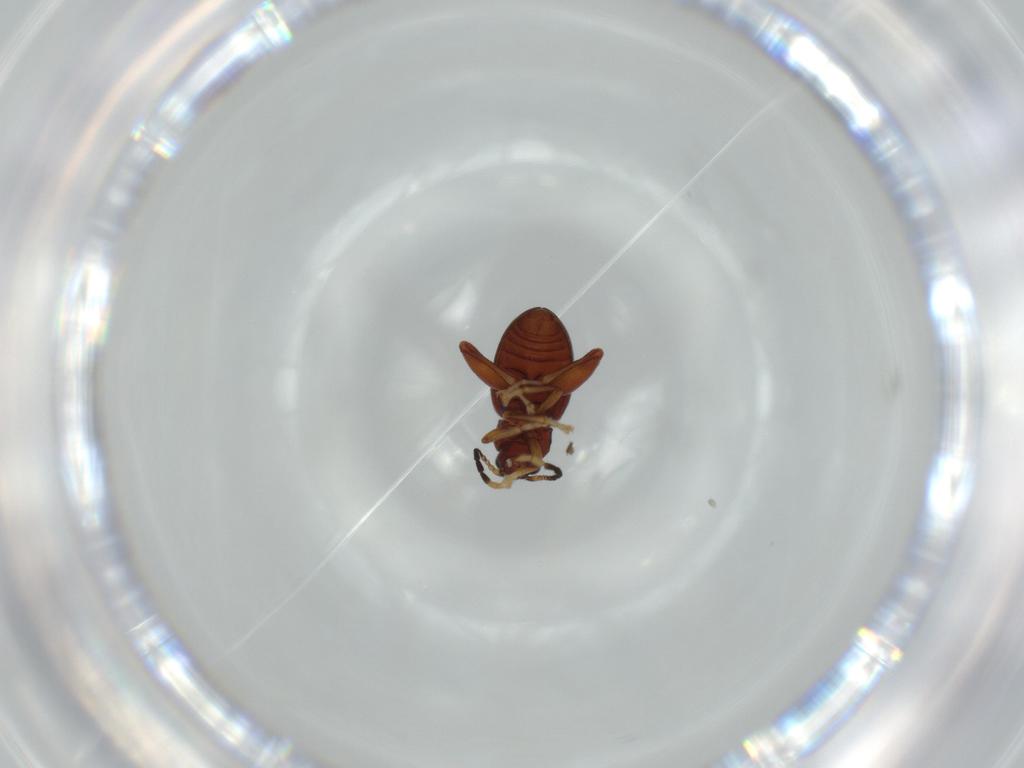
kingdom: Animalia
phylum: Arthropoda
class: Insecta
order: Coleoptera
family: Chrysomelidae
